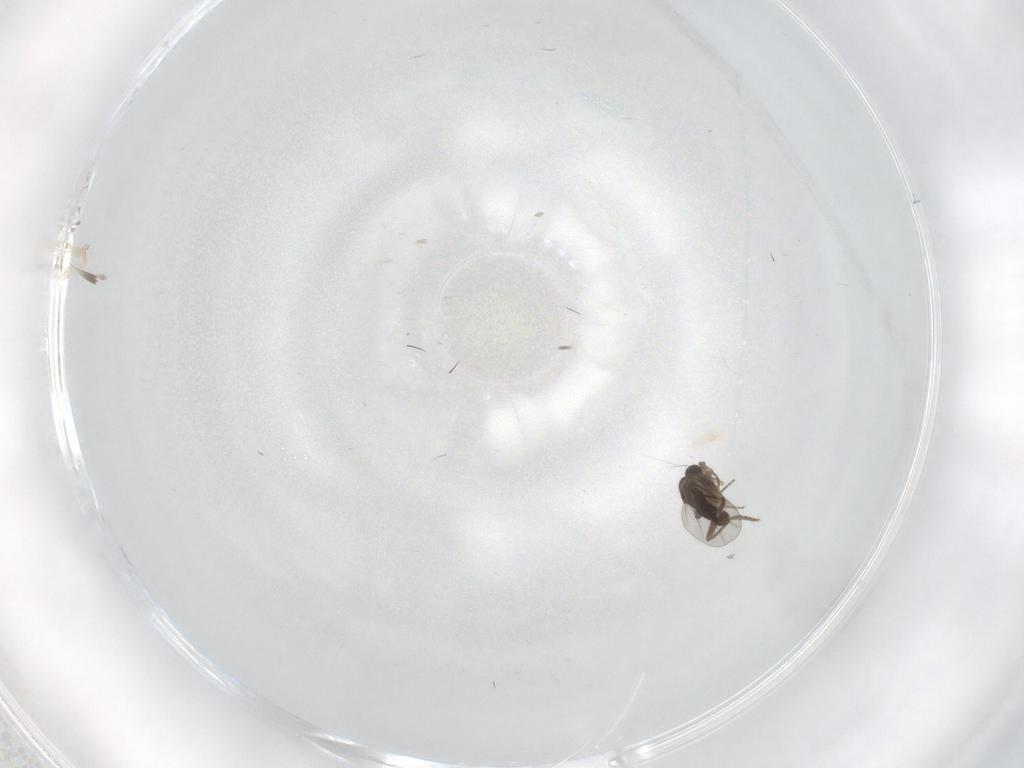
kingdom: Animalia
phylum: Arthropoda
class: Insecta
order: Diptera
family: Cecidomyiidae
